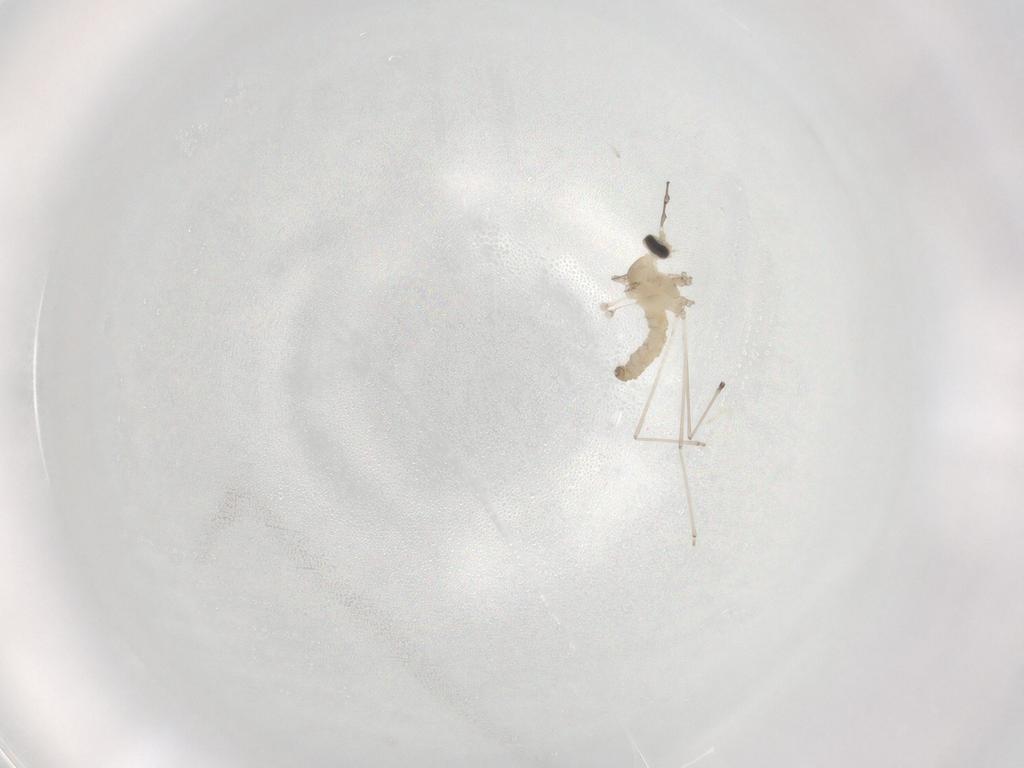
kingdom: Animalia
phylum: Arthropoda
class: Insecta
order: Diptera
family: Cecidomyiidae
